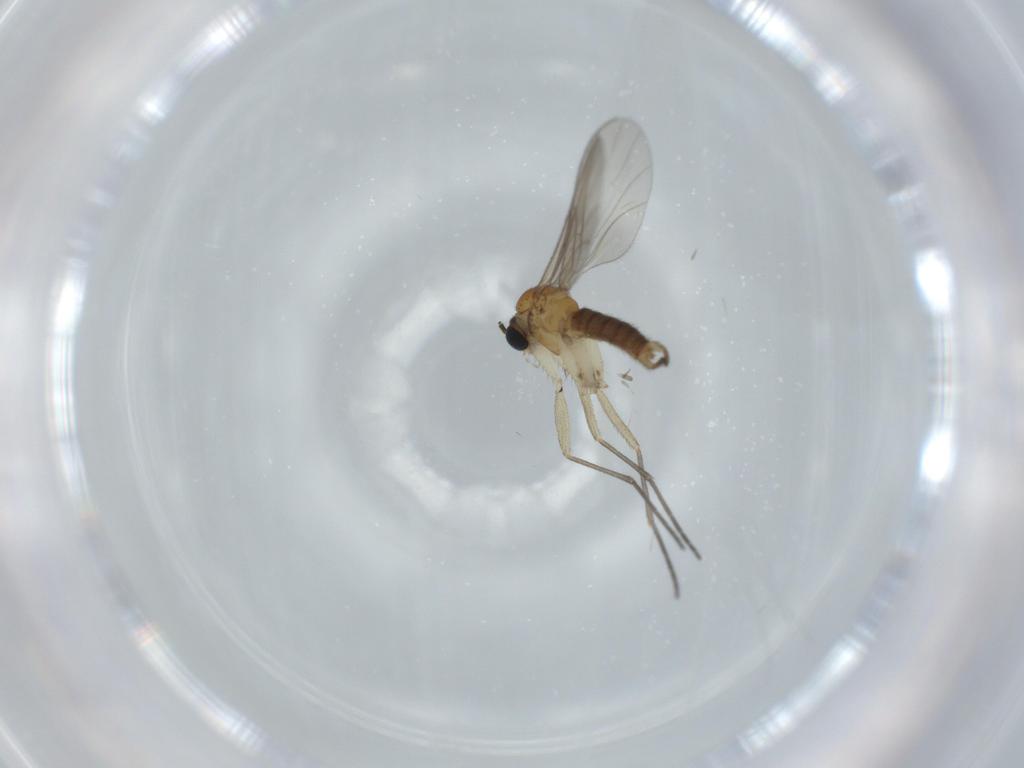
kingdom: Animalia
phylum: Arthropoda
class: Insecta
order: Diptera
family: Sciaridae
